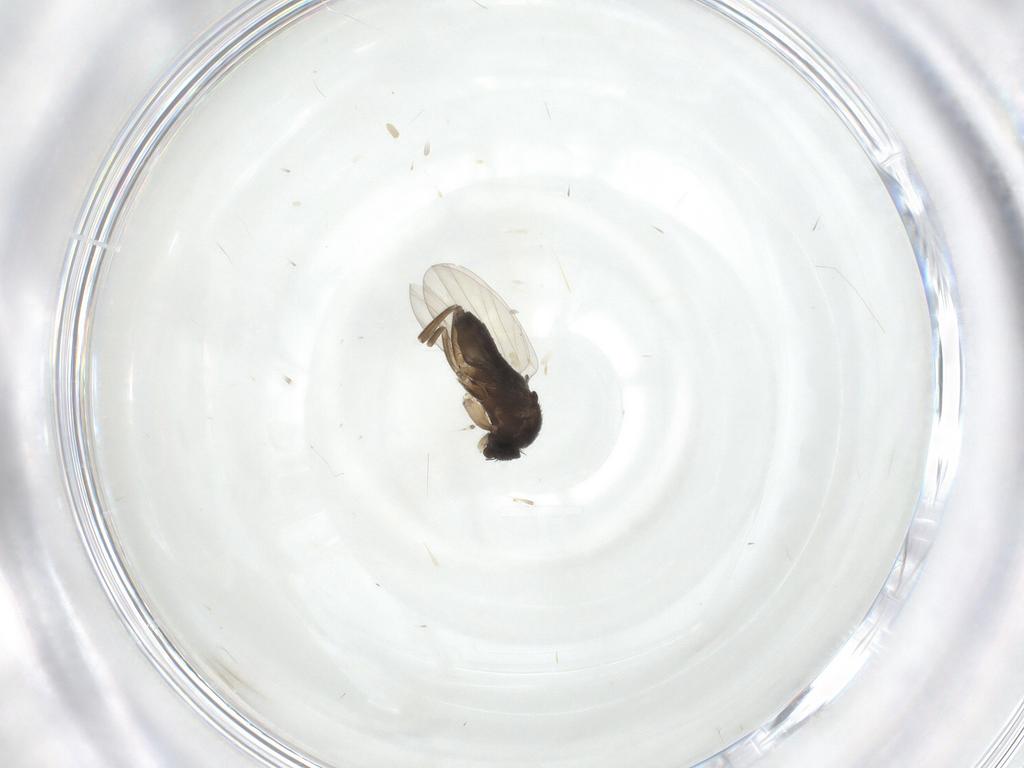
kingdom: Animalia
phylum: Arthropoda
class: Insecta
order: Diptera
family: Phoridae
